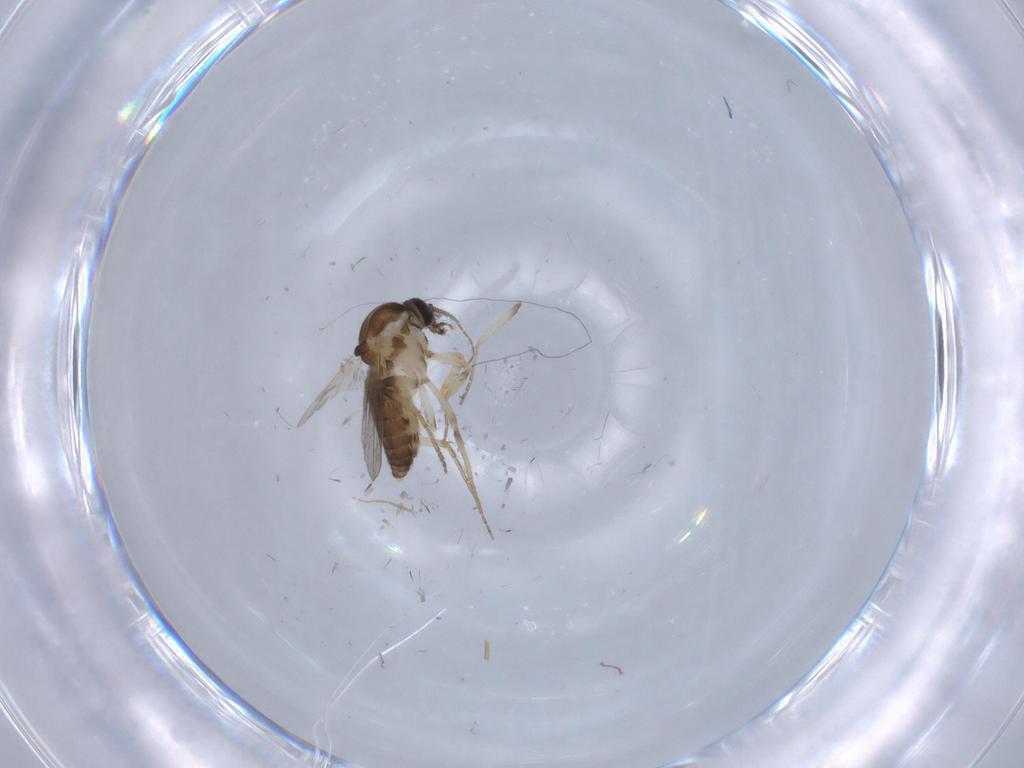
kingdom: Animalia
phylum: Arthropoda
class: Insecta
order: Diptera
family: Ceratopogonidae
